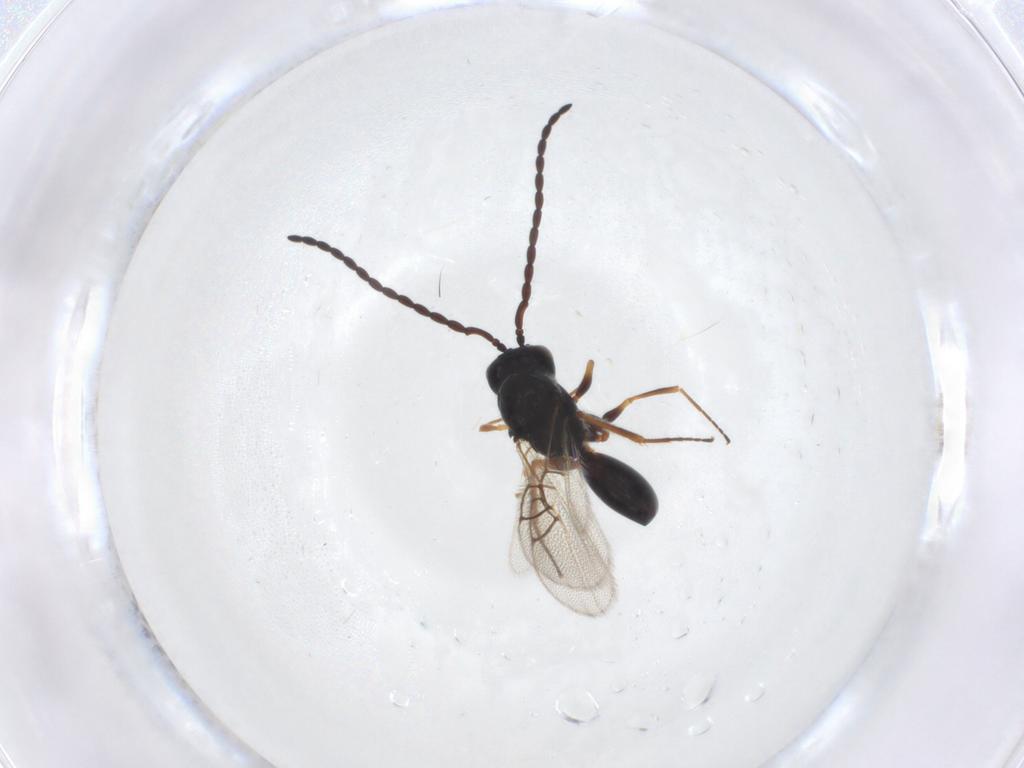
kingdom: Animalia
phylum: Arthropoda
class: Insecta
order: Hymenoptera
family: Figitidae
